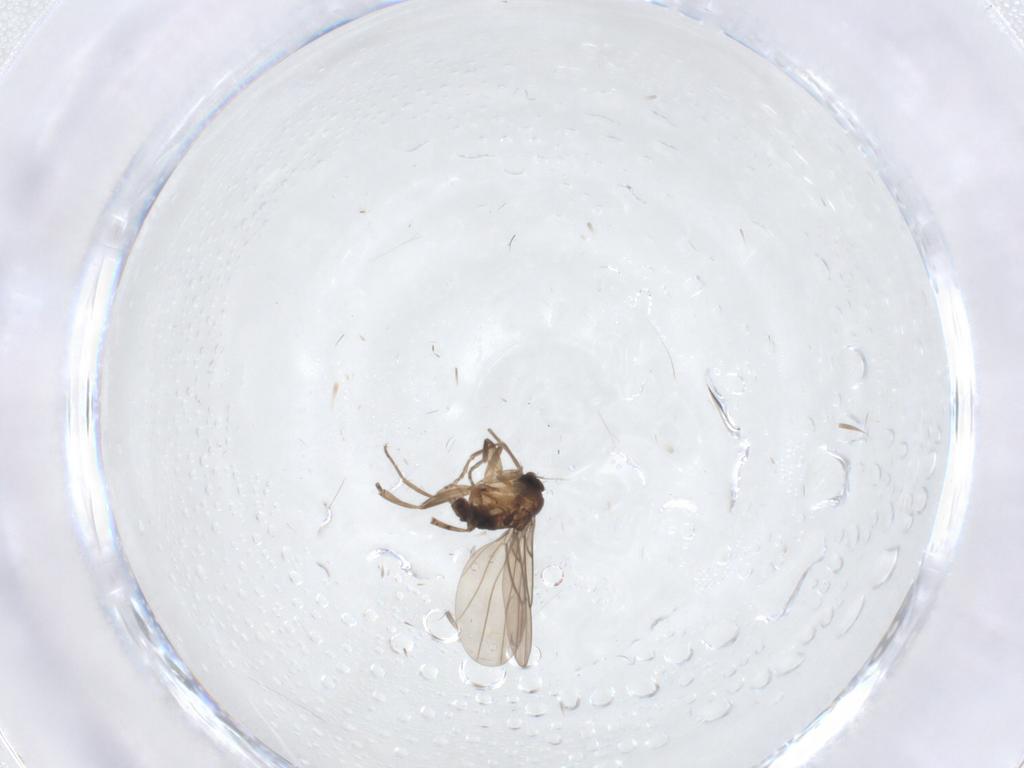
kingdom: Animalia
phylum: Arthropoda
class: Insecta
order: Diptera
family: Phoridae
